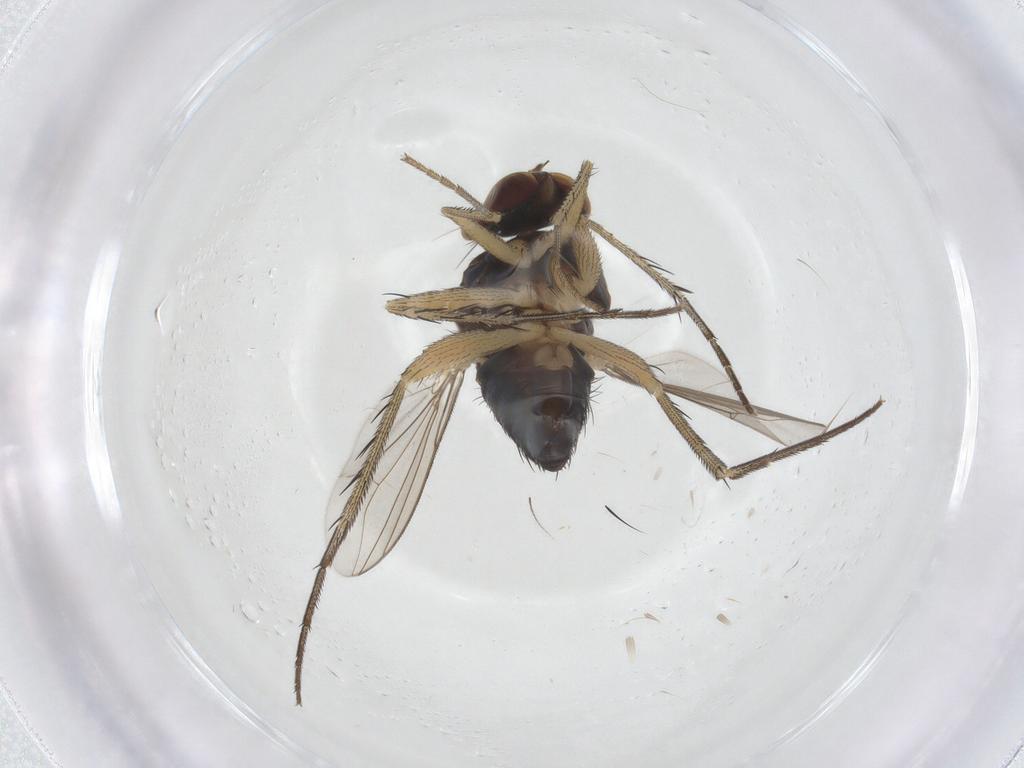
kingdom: Animalia
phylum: Arthropoda
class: Insecta
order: Diptera
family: Dolichopodidae
